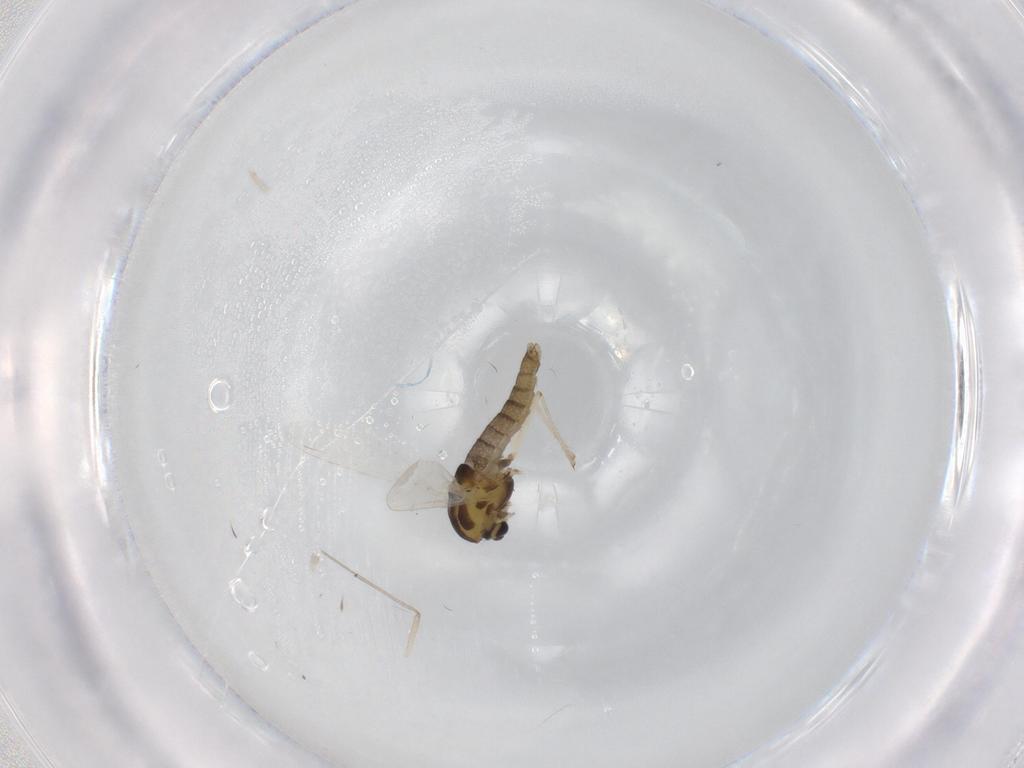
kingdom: Animalia
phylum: Arthropoda
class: Insecta
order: Diptera
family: Chironomidae
